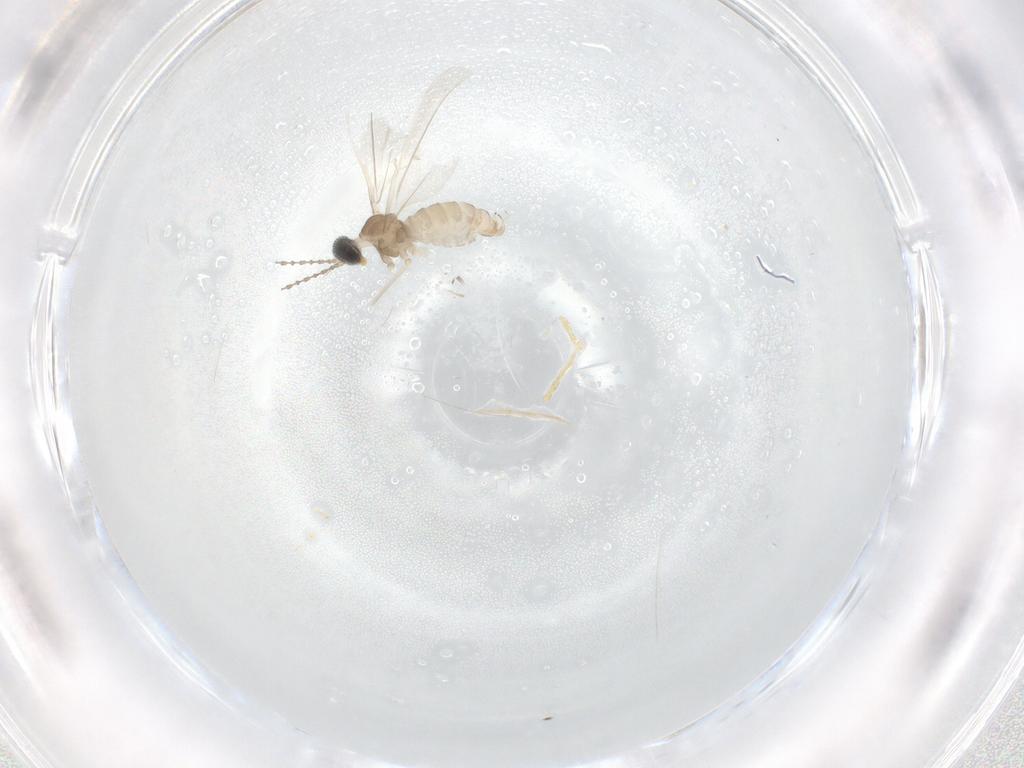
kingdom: Animalia
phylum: Arthropoda
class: Insecta
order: Diptera
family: Cecidomyiidae
